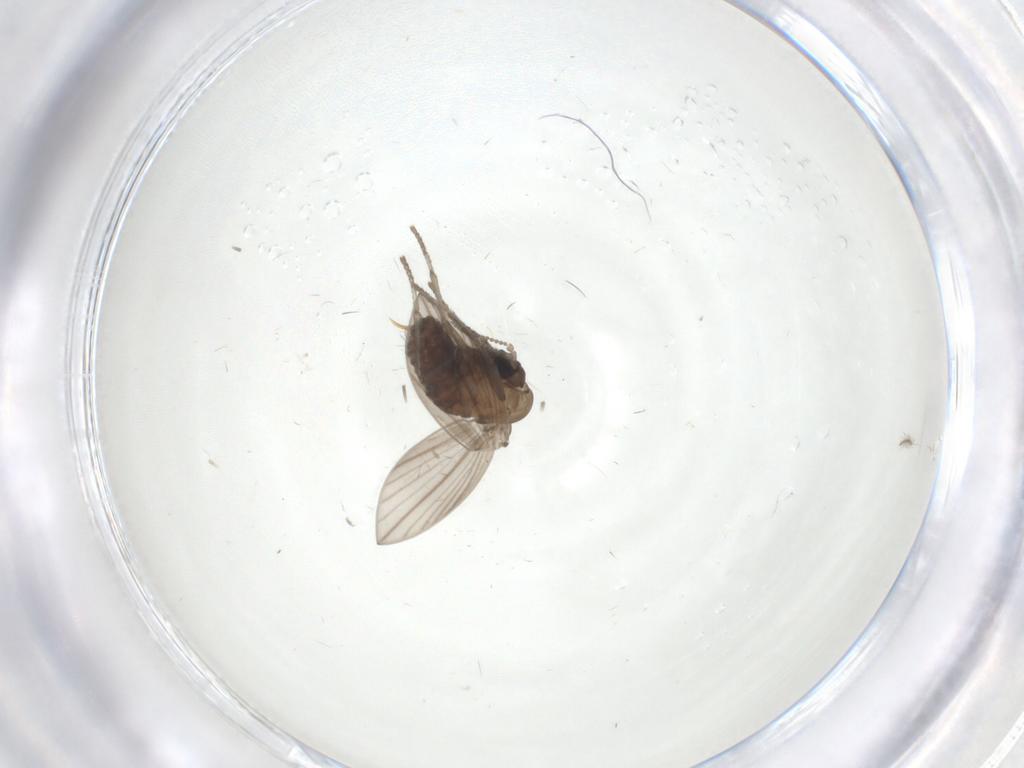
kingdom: Animalia
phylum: Arthropoda
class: Insecta
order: Diptera
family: Psychodidae
